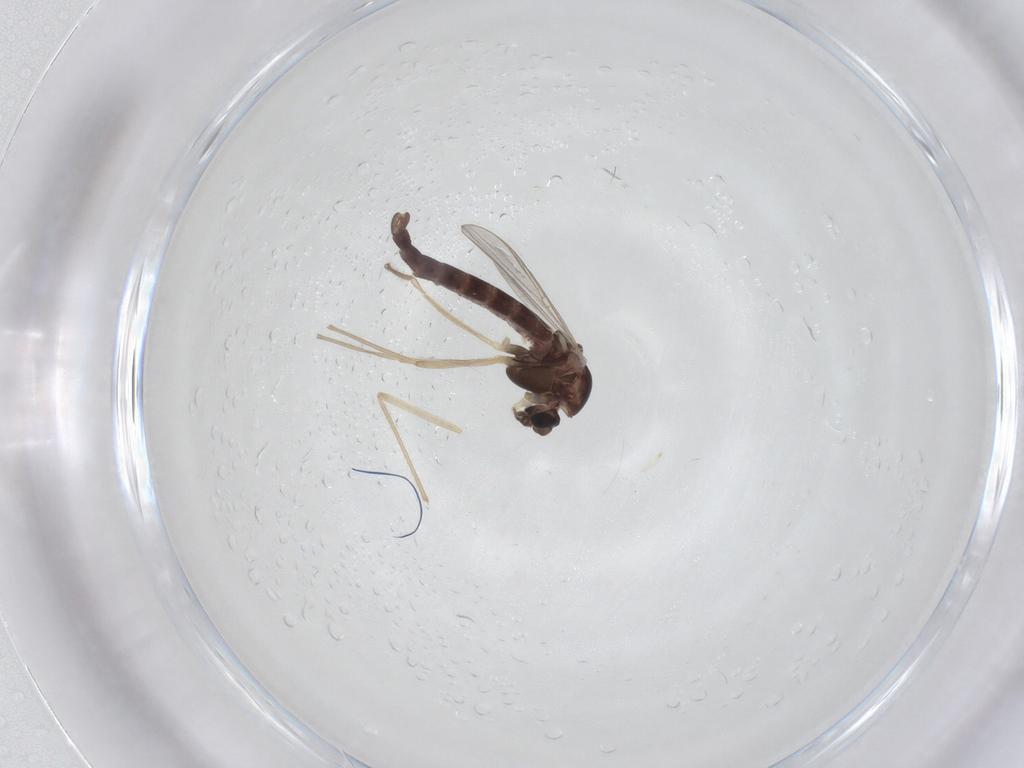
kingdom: Animalia
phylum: Arthropoda
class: Insecta
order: Diptera
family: Chironomidae
